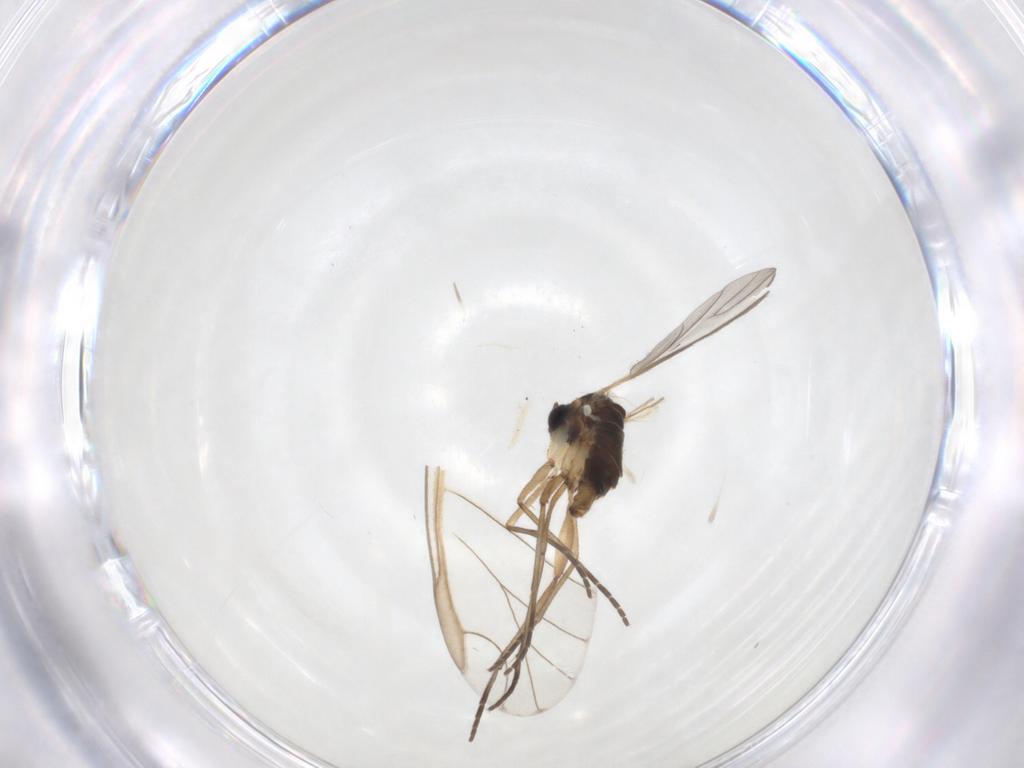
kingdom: Animalia
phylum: Arthropoda
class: Insecta
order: Diptera
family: Chironomidae
